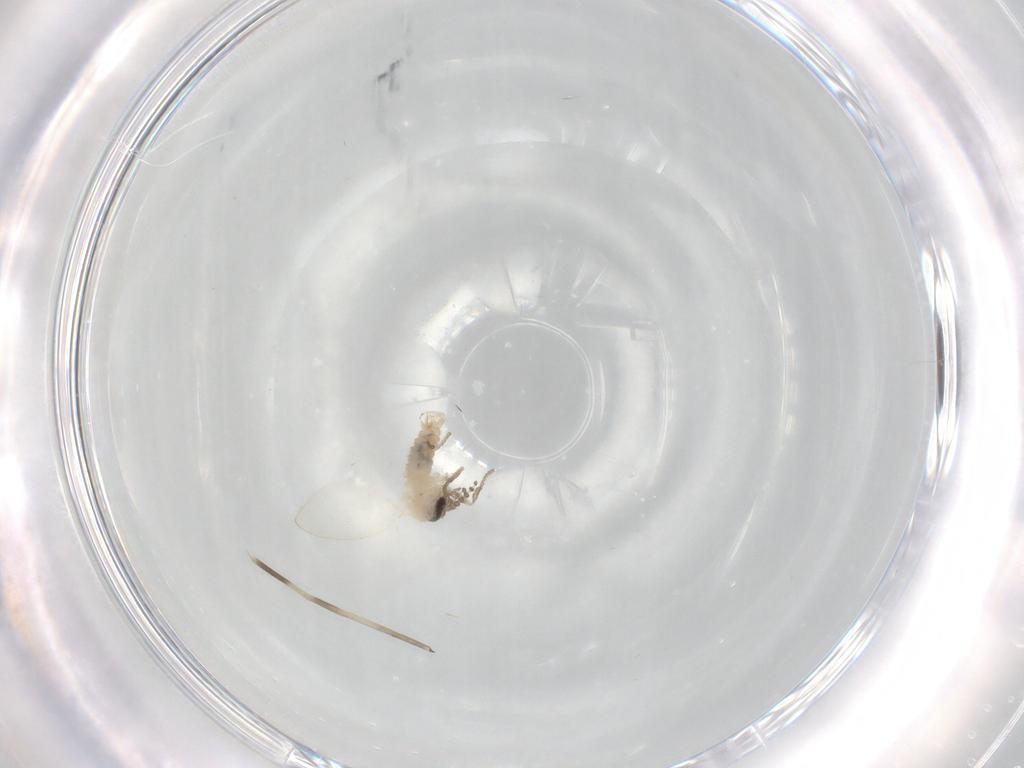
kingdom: Animalia
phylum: Arthropoda
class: Insecta
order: Diptera
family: Psychodidae
